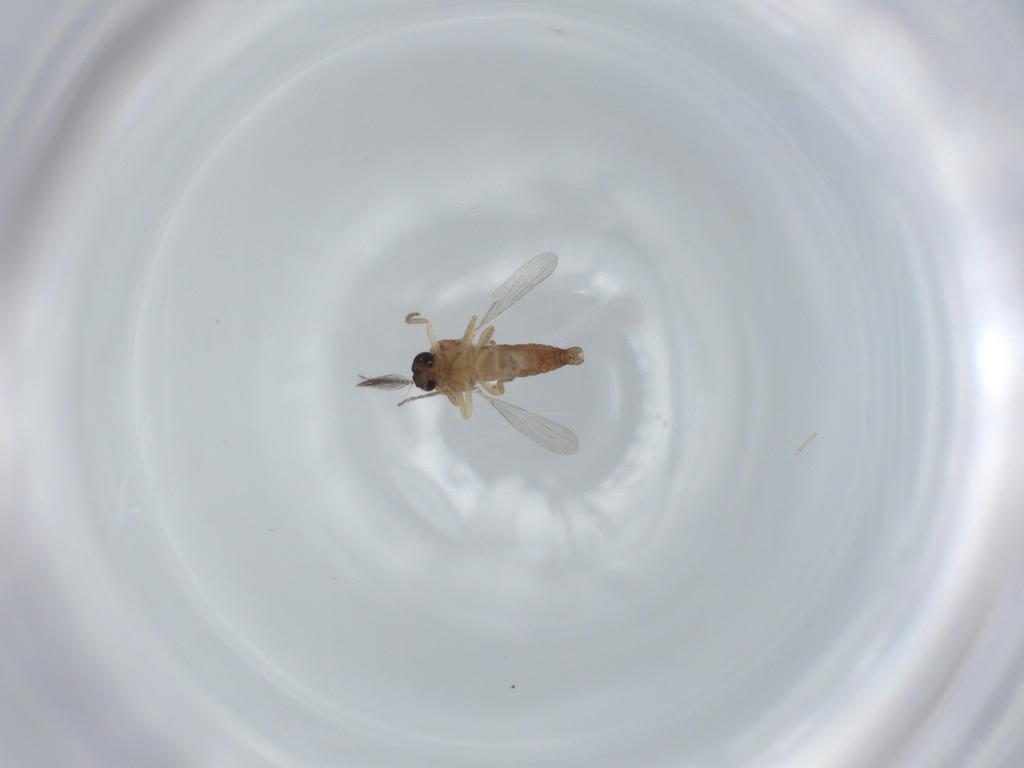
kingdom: Animalia
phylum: Arthropoda
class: Insecta
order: Diptera
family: Ceratopogonidae
